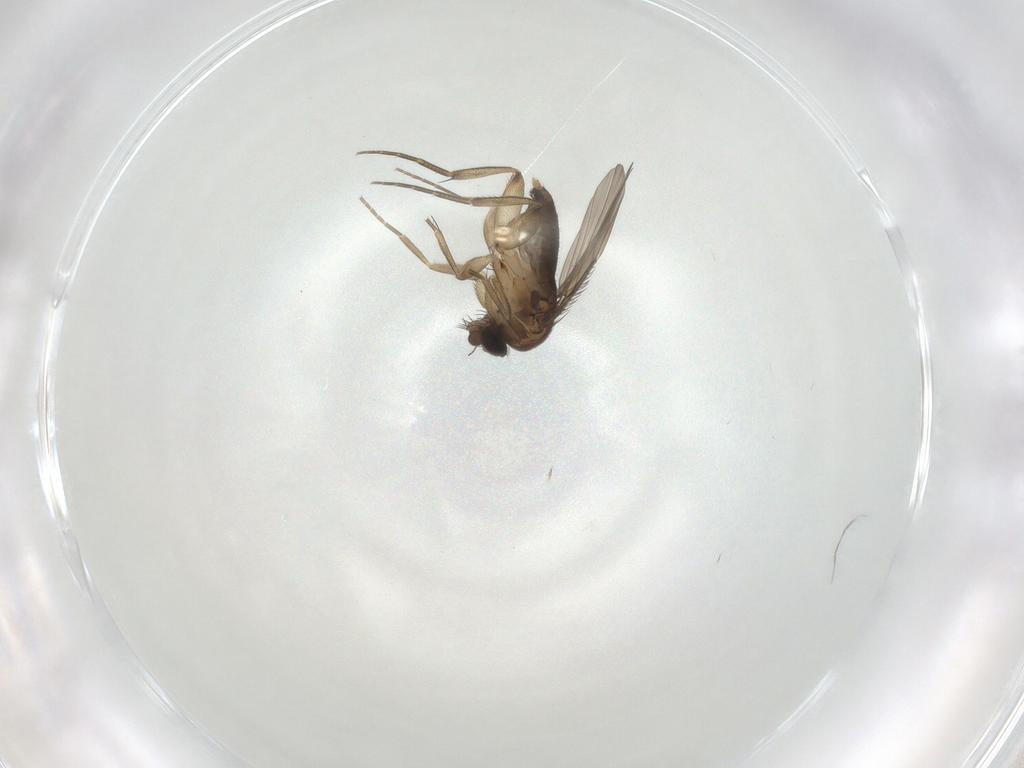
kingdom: Animalia
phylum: Arthropoda
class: Insecta
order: Diptera
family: Phoridae
